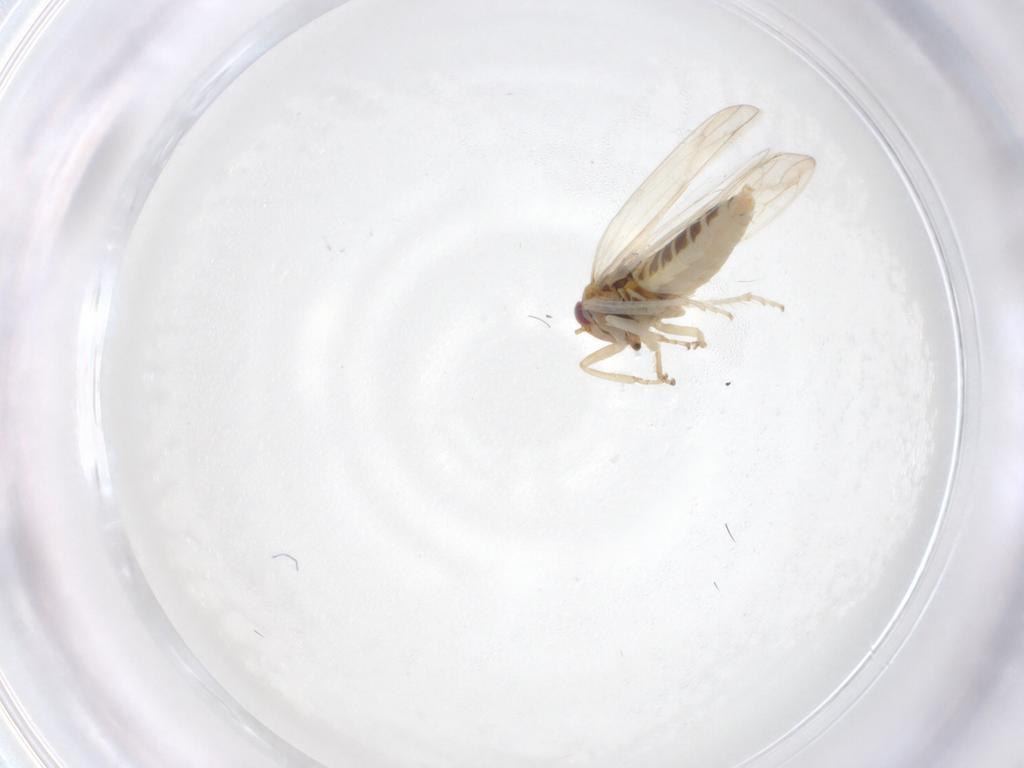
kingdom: Animalia
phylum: Arthropoda
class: Insecta
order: Hemiptera
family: Cicadellidae
